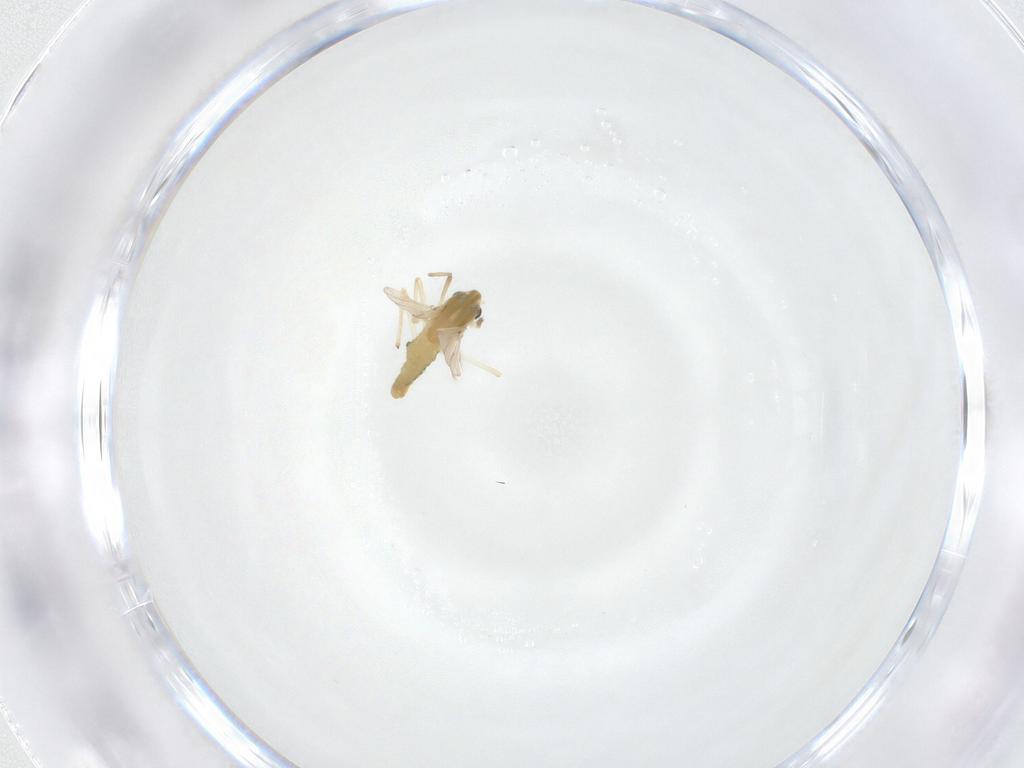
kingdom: Animalia
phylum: Arthropoda
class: Insecta
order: Diptera
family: Chironomidae
